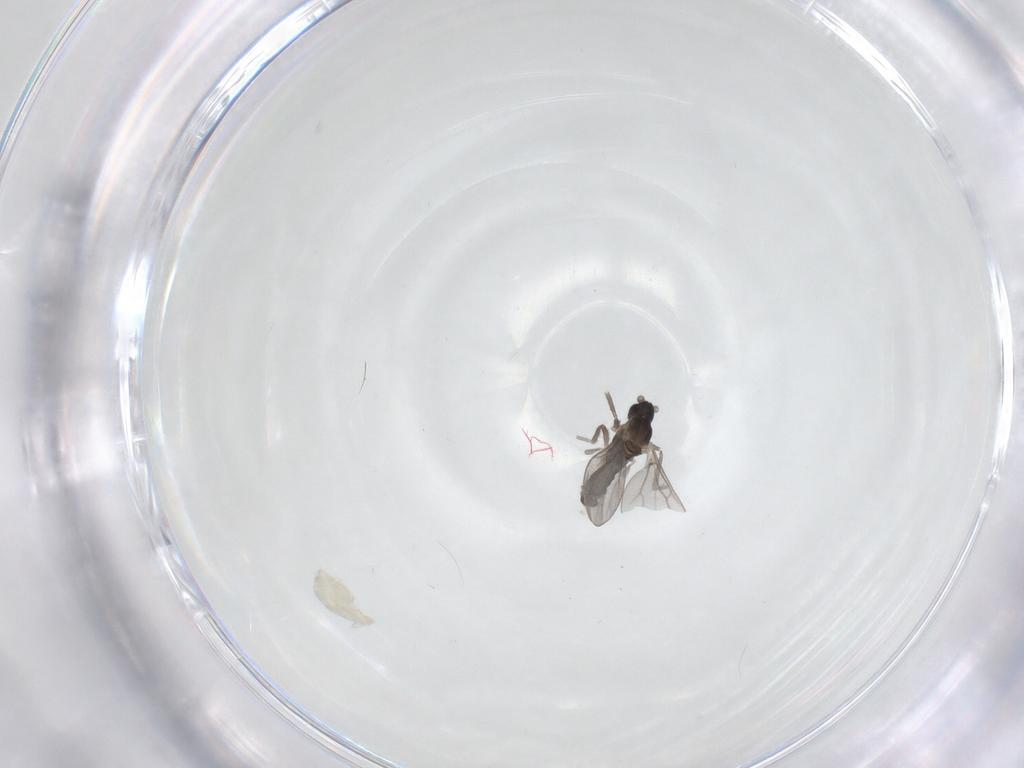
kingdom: Animalia
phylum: Arthropoda
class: Insecta
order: Diptera
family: Cecidomyiidae
